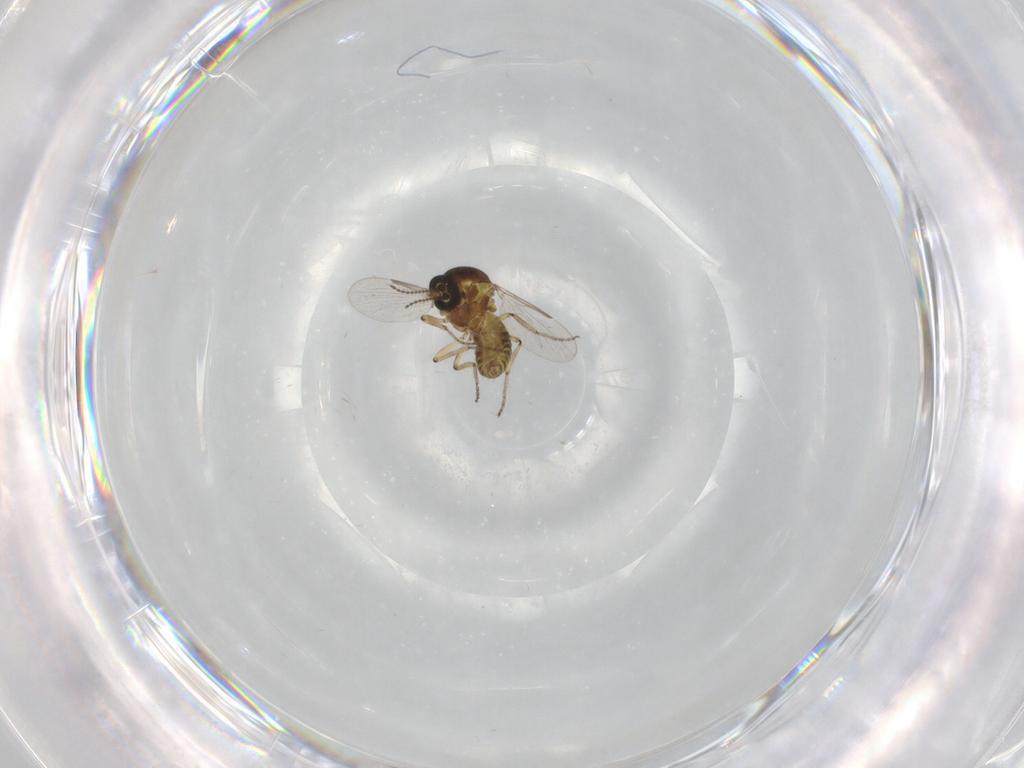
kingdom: Animalia
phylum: Arthropoda
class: Insecta
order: Diptera
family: Ceratopogonidae
